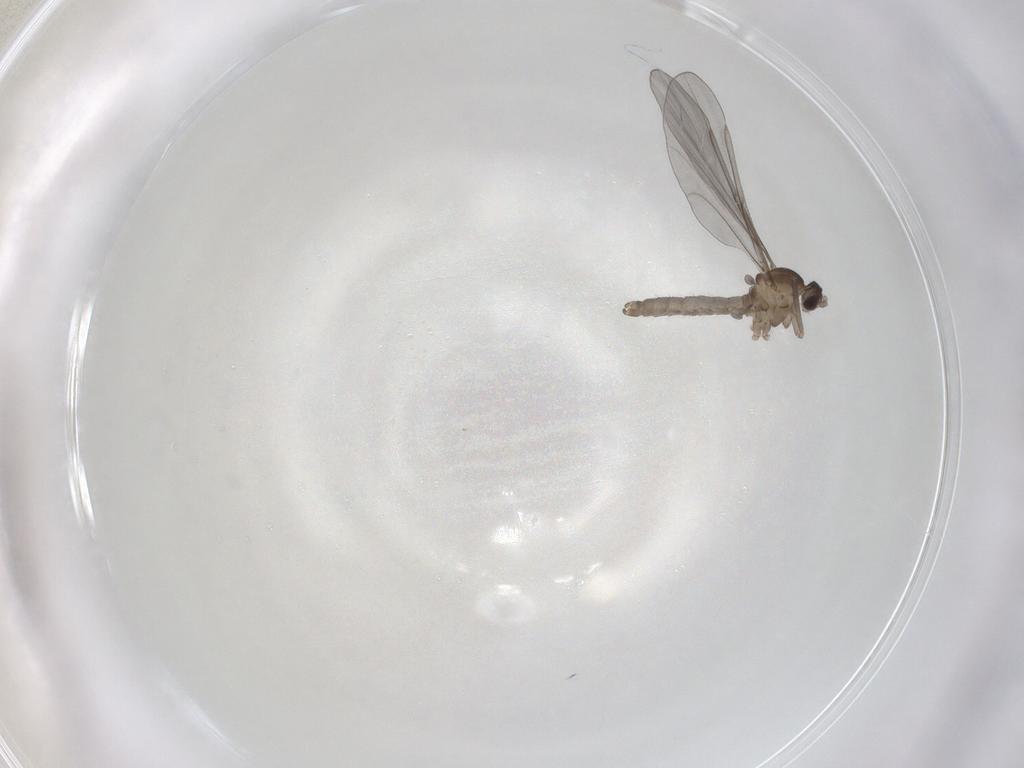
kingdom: Animalia
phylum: Arthropoda
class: Insecta
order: Diptera
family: Cecidomyiidae
